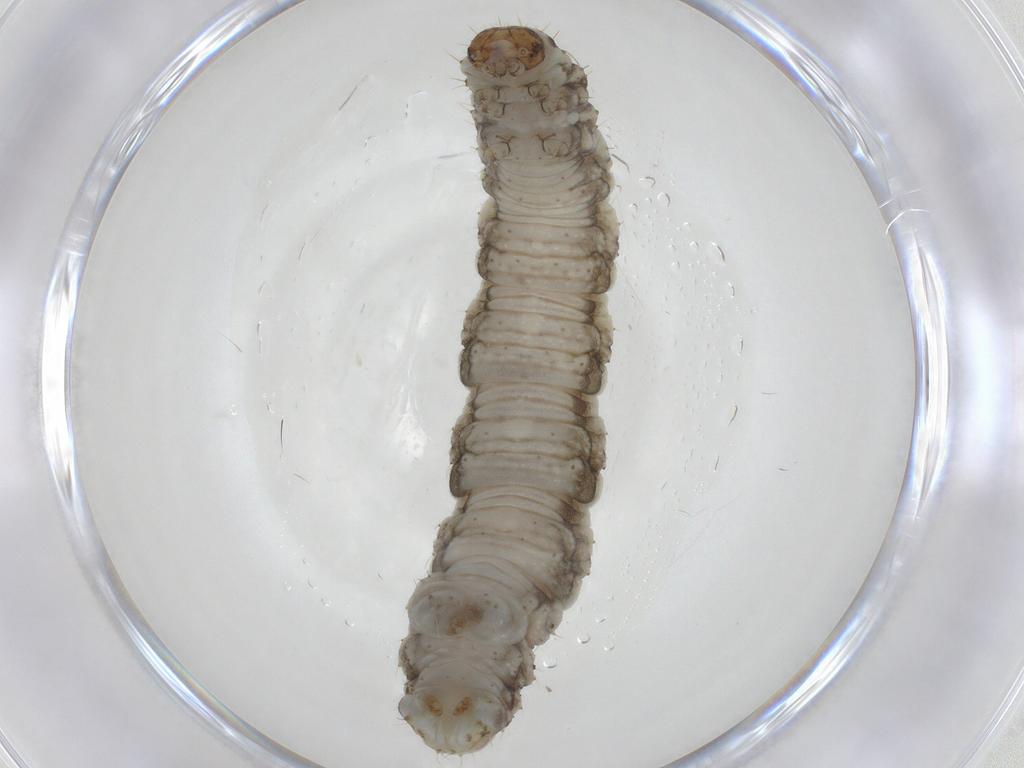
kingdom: Animalia
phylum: Arthropoda
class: Insecta
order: Lepidoptera
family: Geometridae
